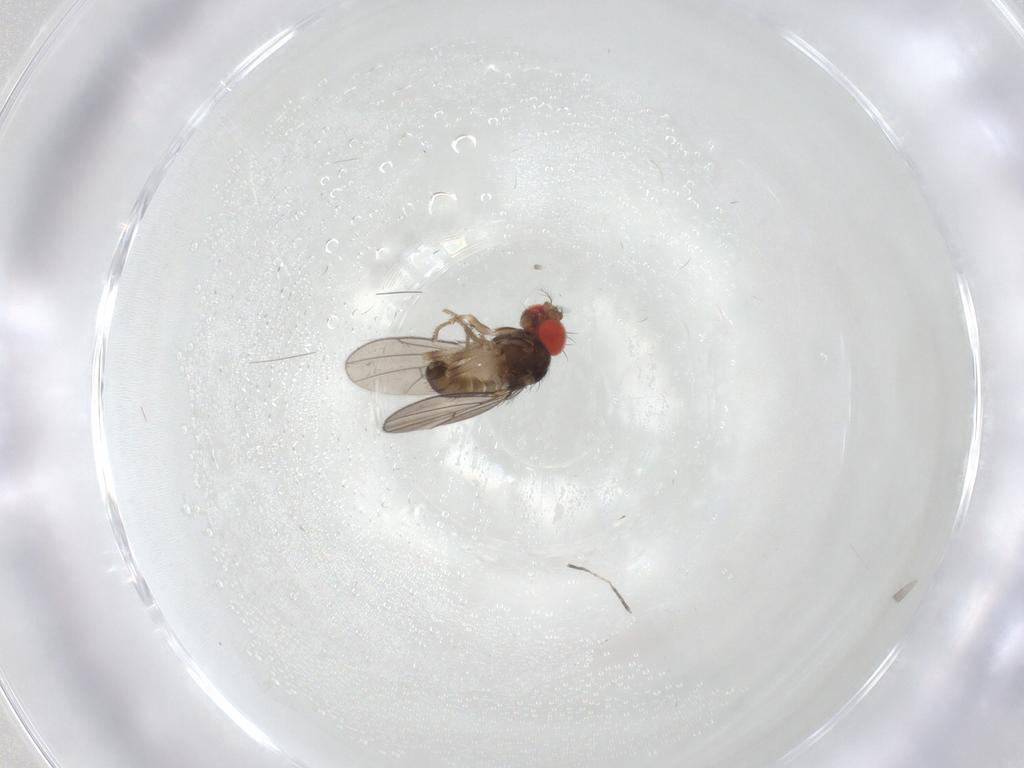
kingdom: Animalia
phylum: Arthropoda
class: Insecta
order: Diptera
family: Drosophilidae
